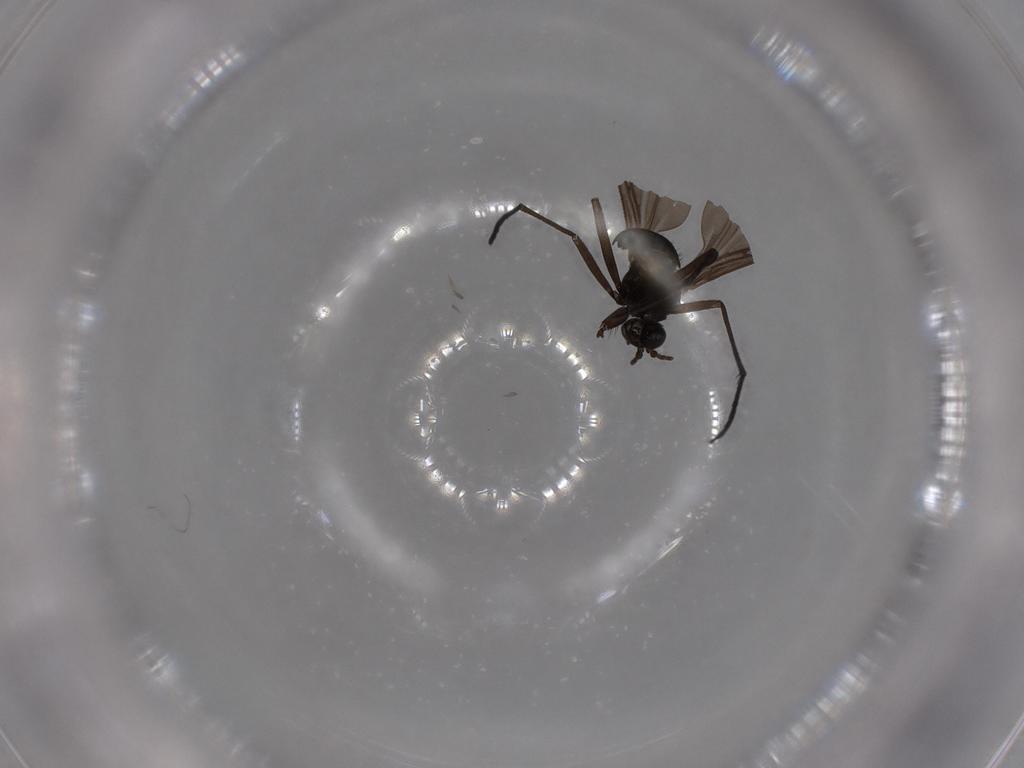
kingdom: Animalia
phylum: Arthropoda
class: Insecta
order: Diptera
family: Sciaridae
